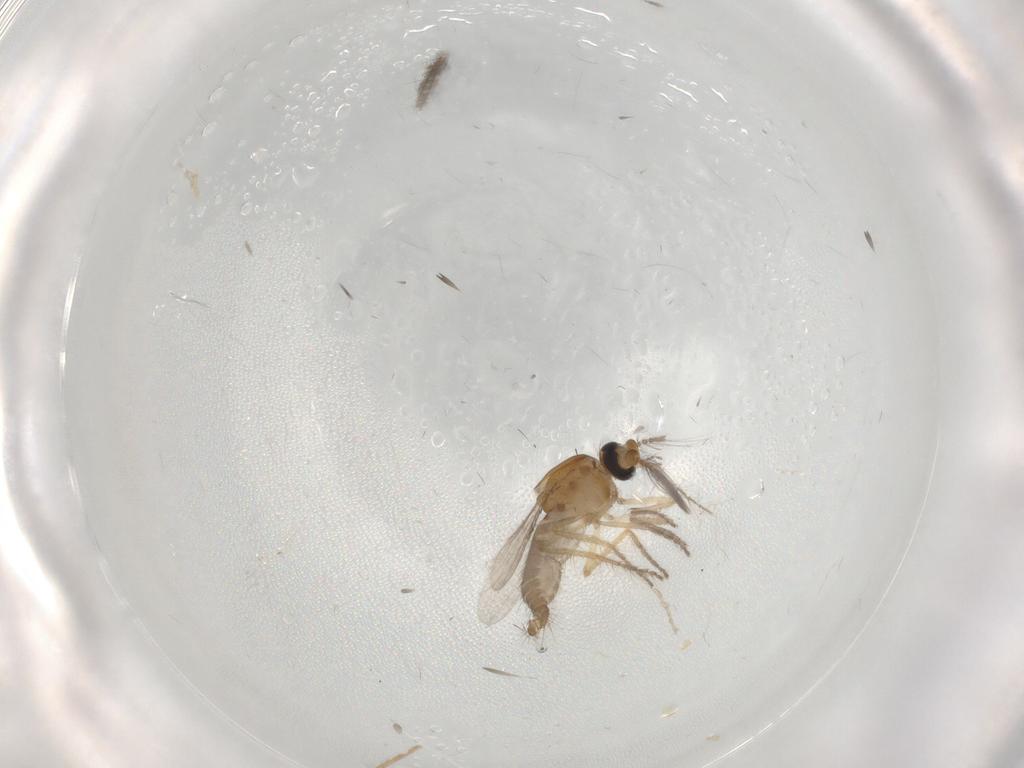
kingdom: Animalia
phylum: Arthropoda
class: Insecta
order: Diptera
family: Ceratopogonidae
